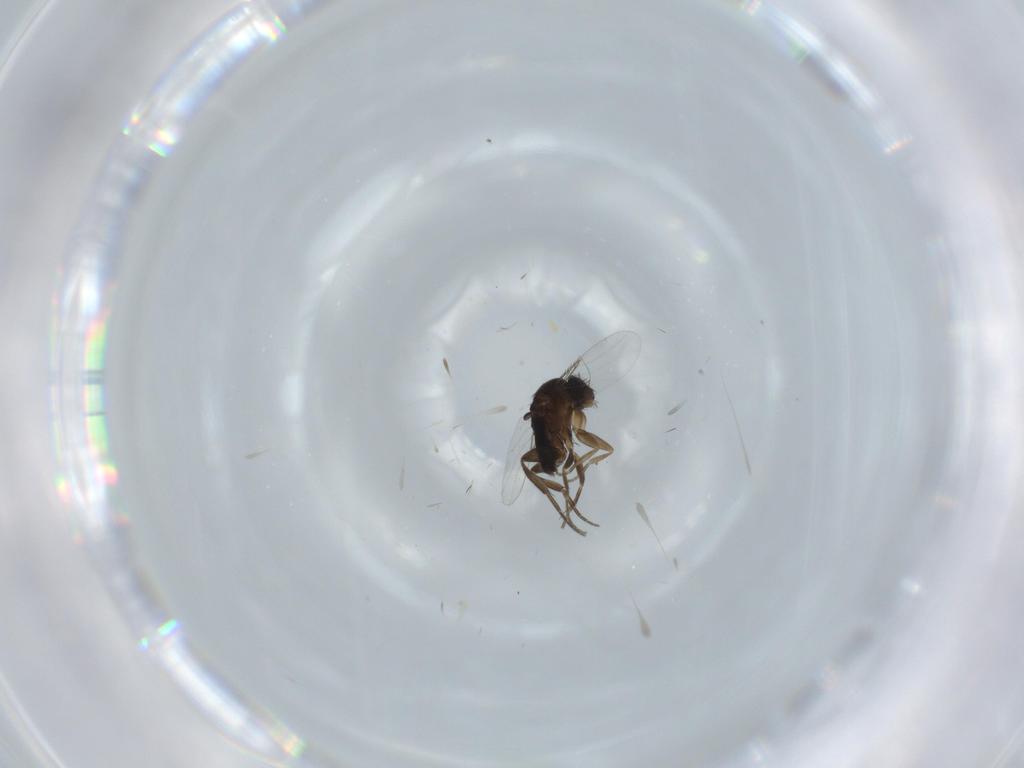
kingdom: Animalia
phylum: Arthropoda
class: Insecta
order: Diptera
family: Phoridae
